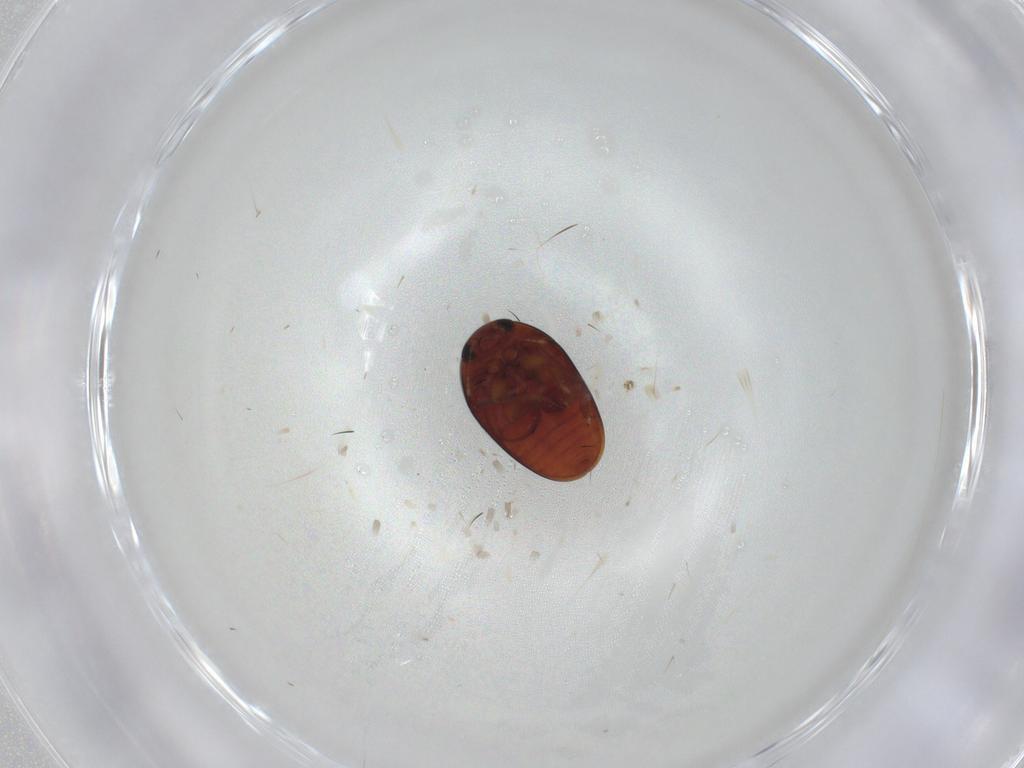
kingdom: Animalia
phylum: Arthropoda
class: Insecta
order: Coleoptera
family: Phalacridae
